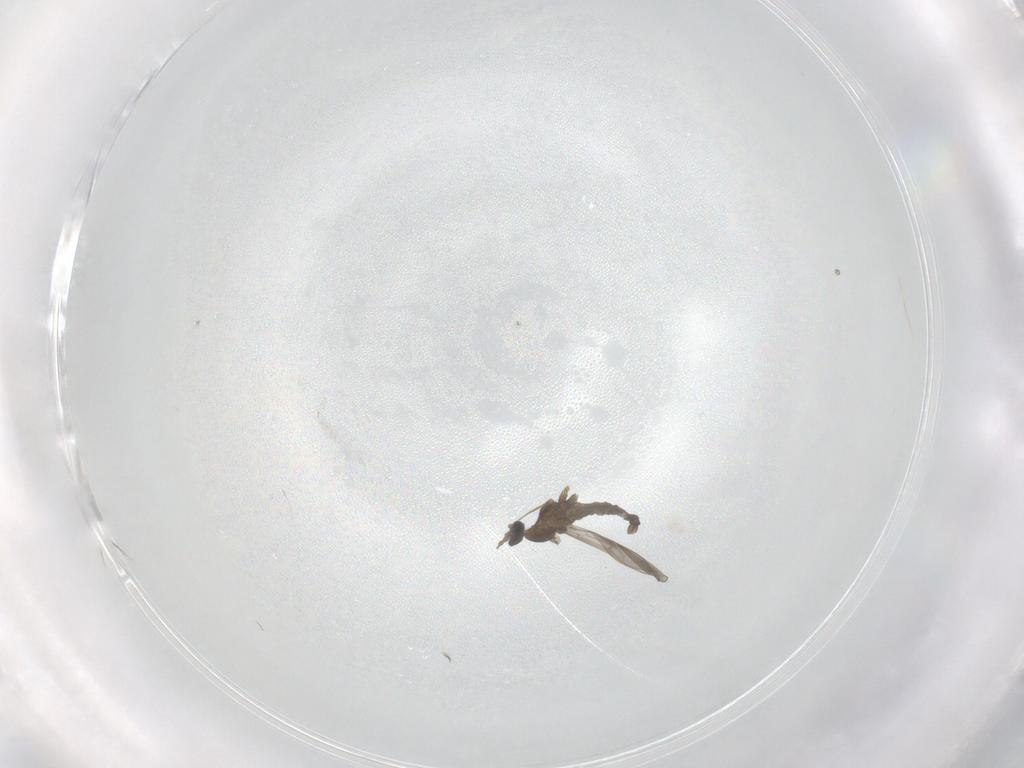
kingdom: Animalia
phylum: Arthropoda
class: Insecta
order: Diptera
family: Cecidomyiidae
